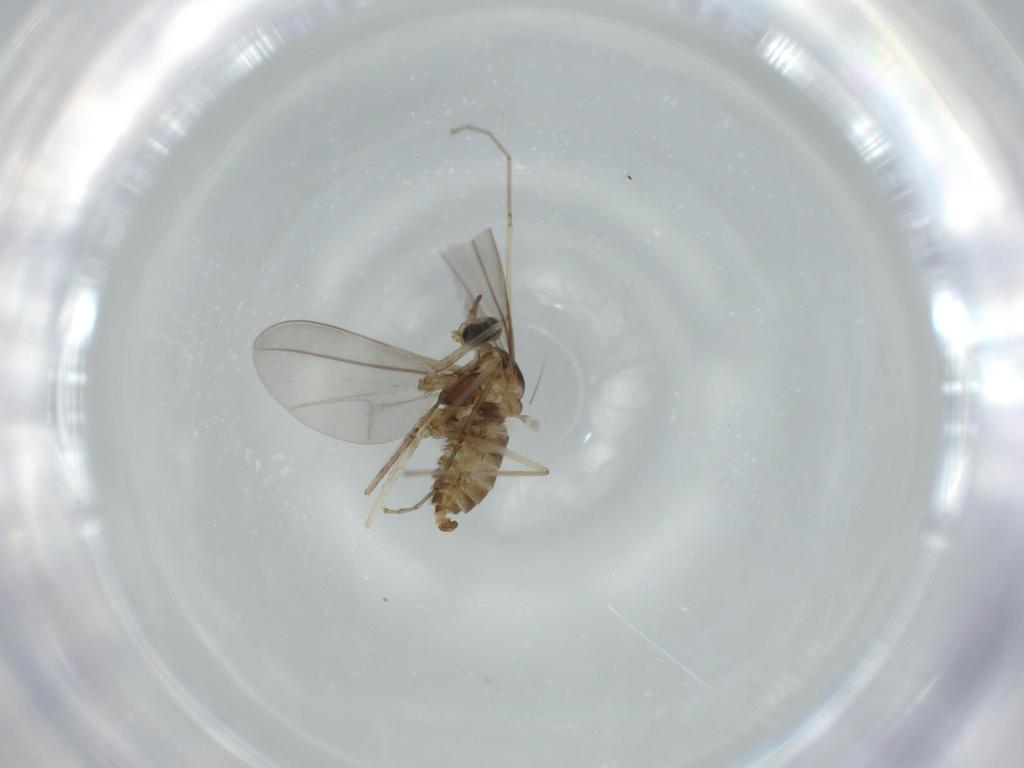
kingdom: Animalia
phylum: Arthropoda
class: Insecta
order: Diptera
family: Cecidomyiidae
